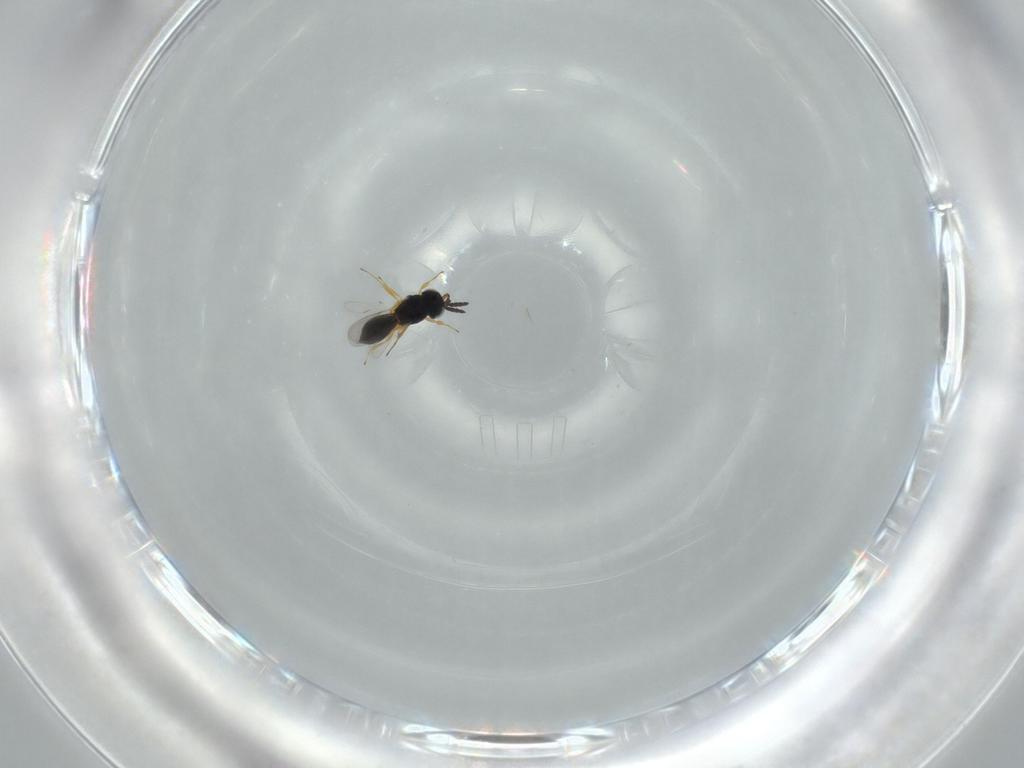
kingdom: Animalia
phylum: Arthropoda
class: Insecta
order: Hymenoptera
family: Scelionidae
